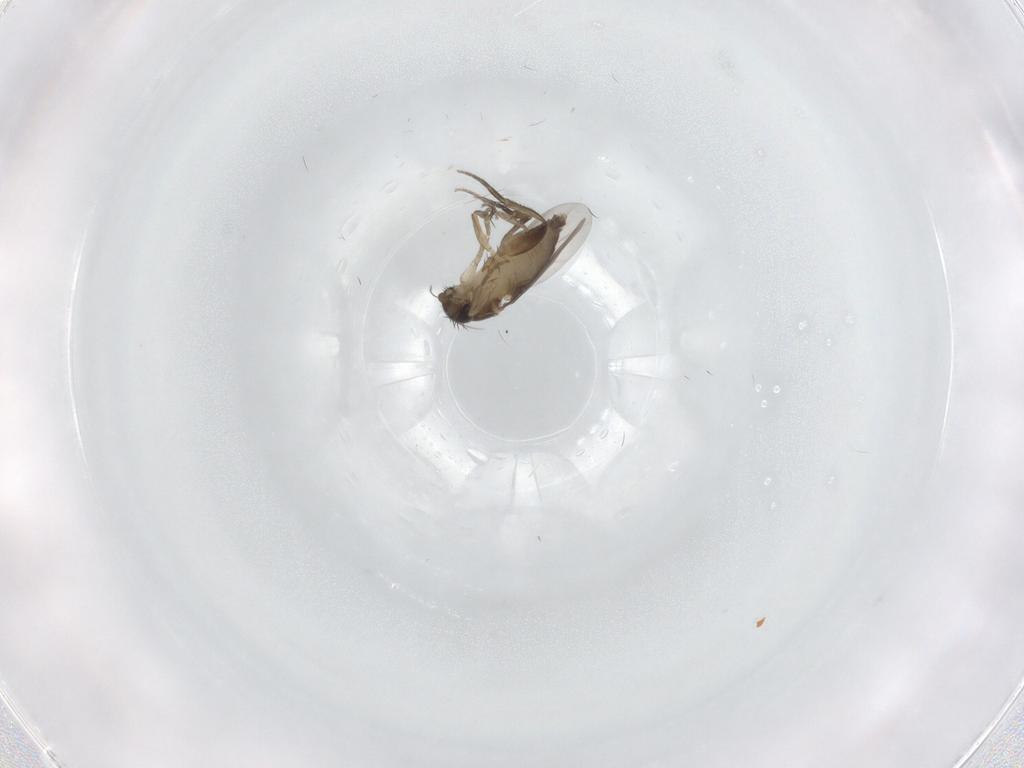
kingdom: Animalia
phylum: Arthropoda
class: Insecta
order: Diptera
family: Phoridae
